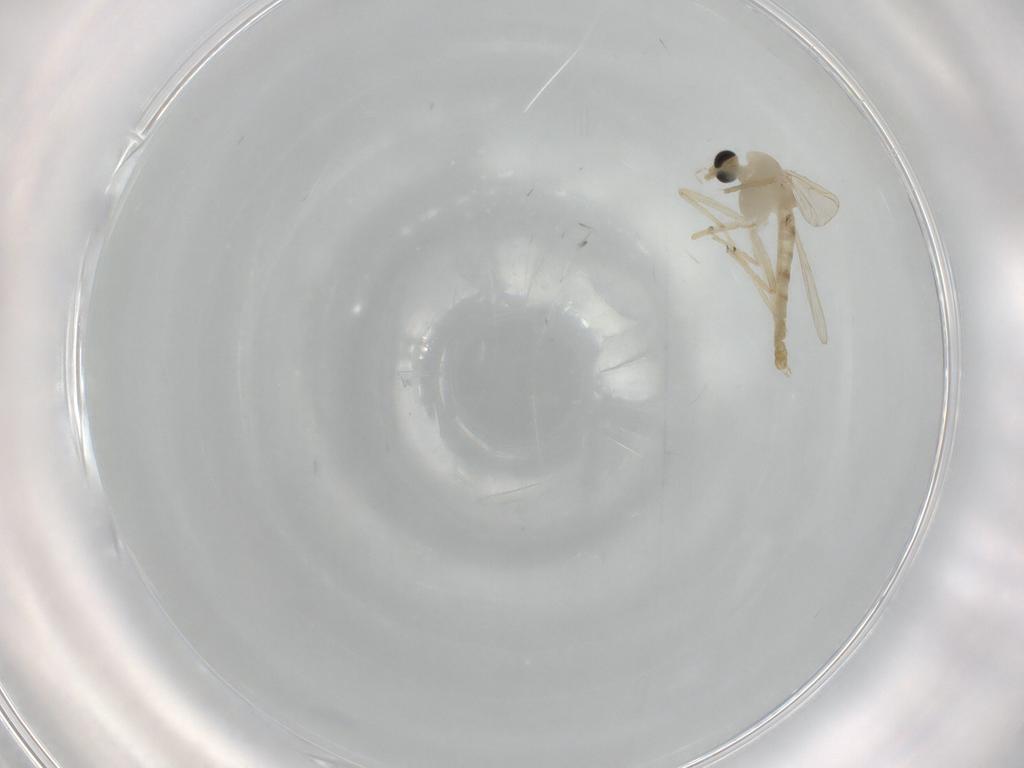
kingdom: Animalia
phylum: Arthropoda
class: Insecta
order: Diptera
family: Chironomidae
